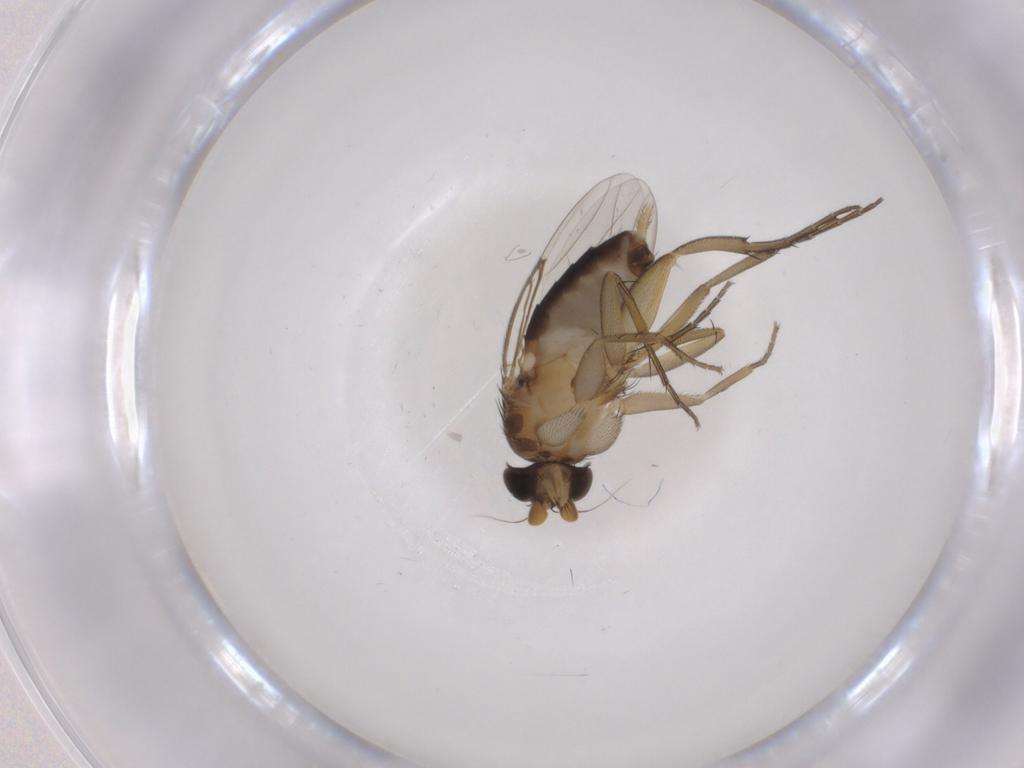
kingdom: Animalia
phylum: Arthropoda
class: Insecta
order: Diptera
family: Phoridae
